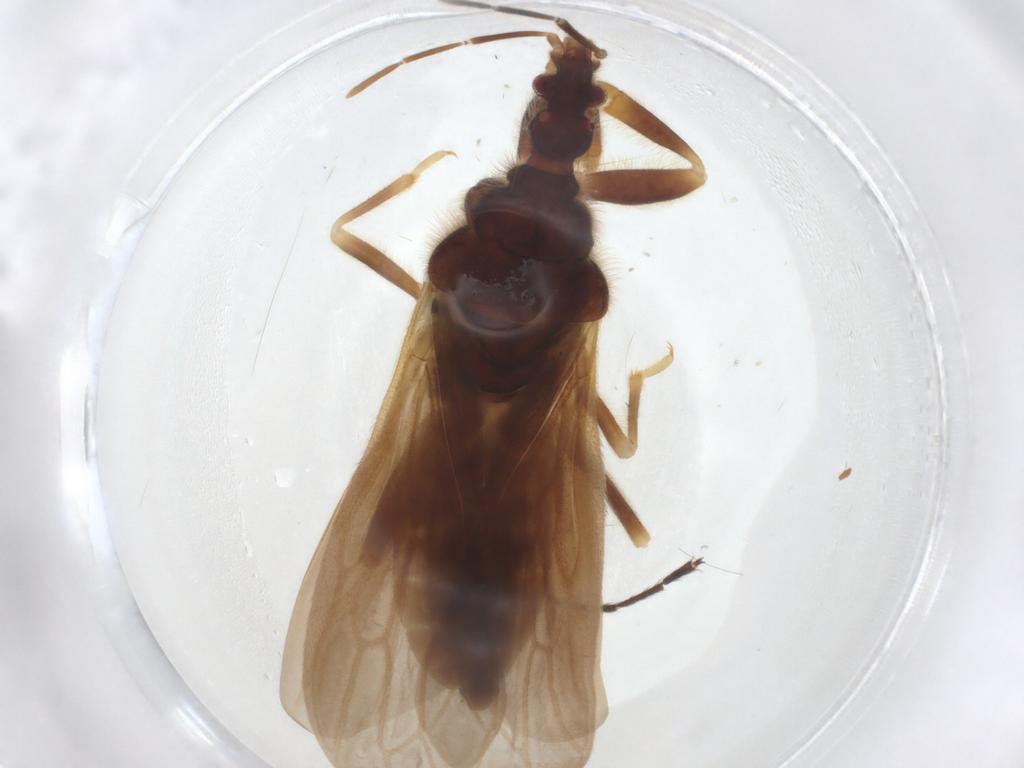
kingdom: Animalia
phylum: Arthropoda
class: Insecta
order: Hemiptera
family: Enicocephalidae
